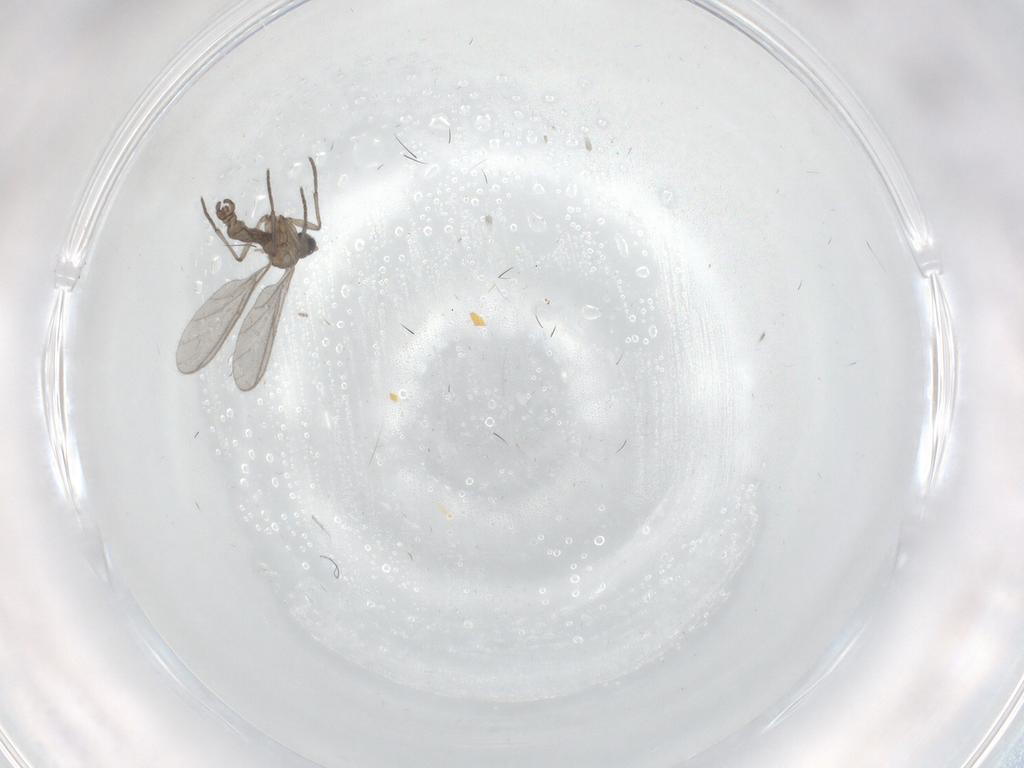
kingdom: Animalia
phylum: Arthropoda
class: Insecta
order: Diptera
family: Sciaridae
